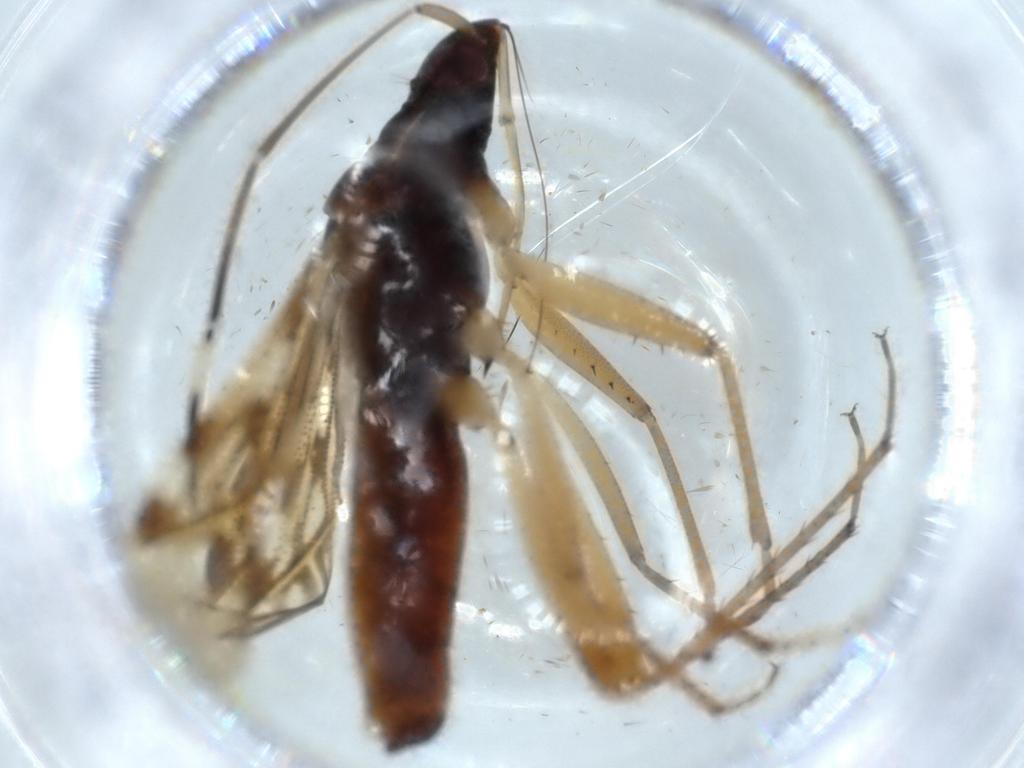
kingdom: Animalia
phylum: Arthropoda
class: Insecta
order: Hemiptera
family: Rhyparochromidae
